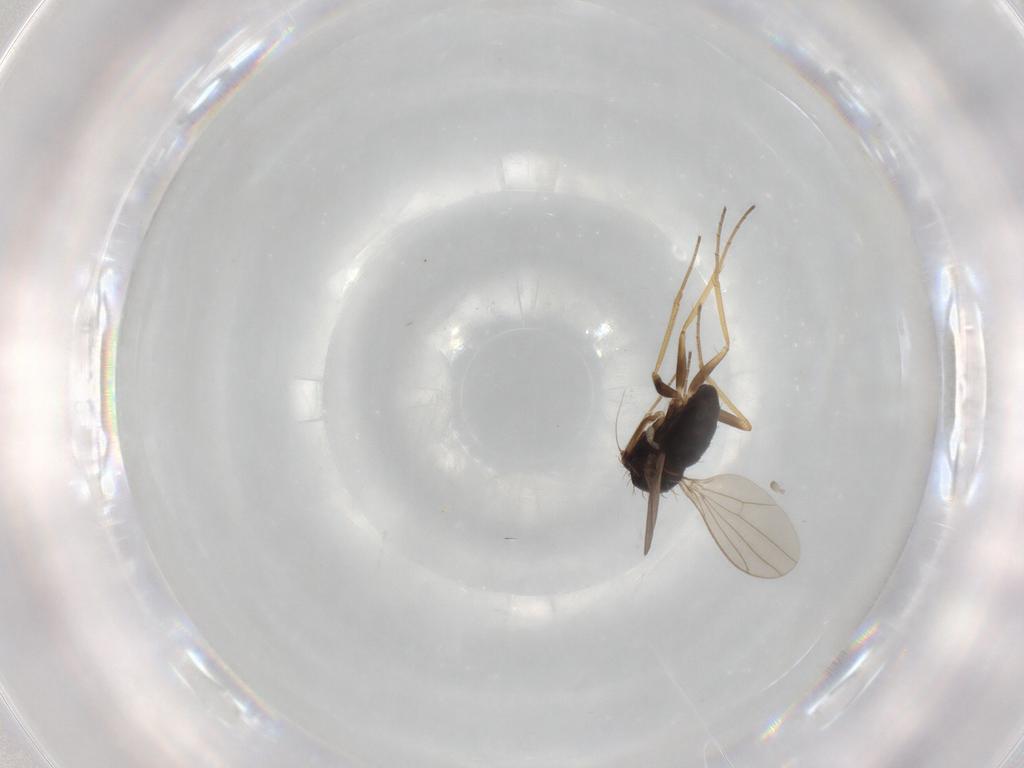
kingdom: Animalia
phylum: Arthropoda
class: Insecta
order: Diptera
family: Dolichopodidae
